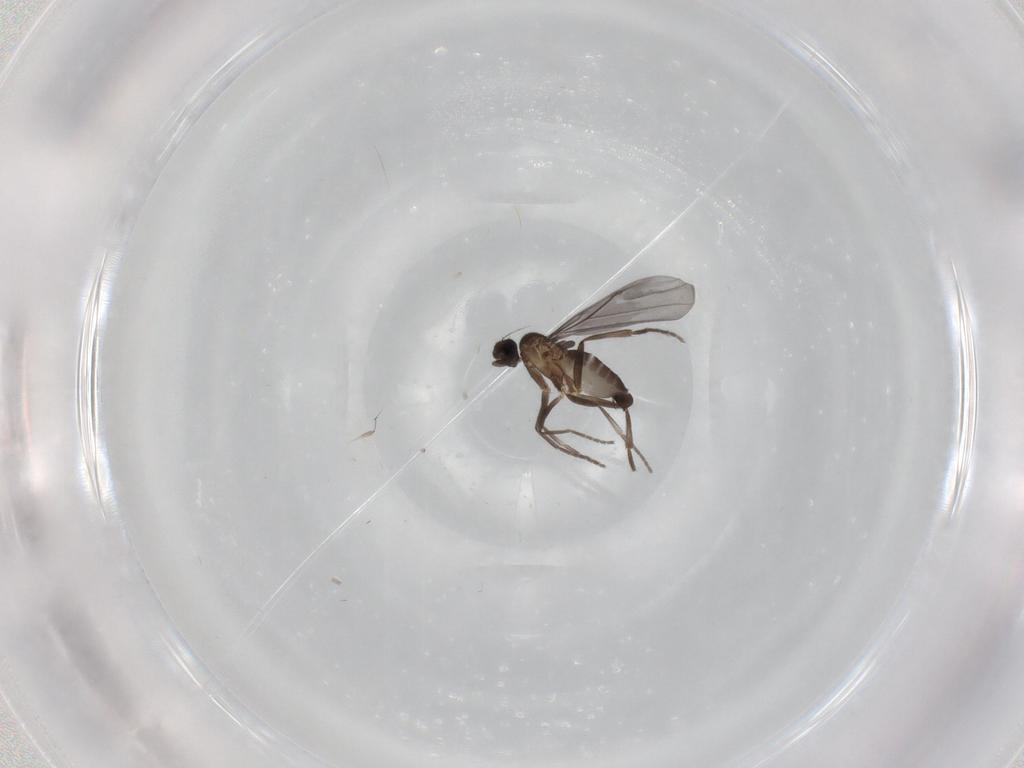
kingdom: Animalia
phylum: Arthropoda
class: Insecta
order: Diptera
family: Phoridae
